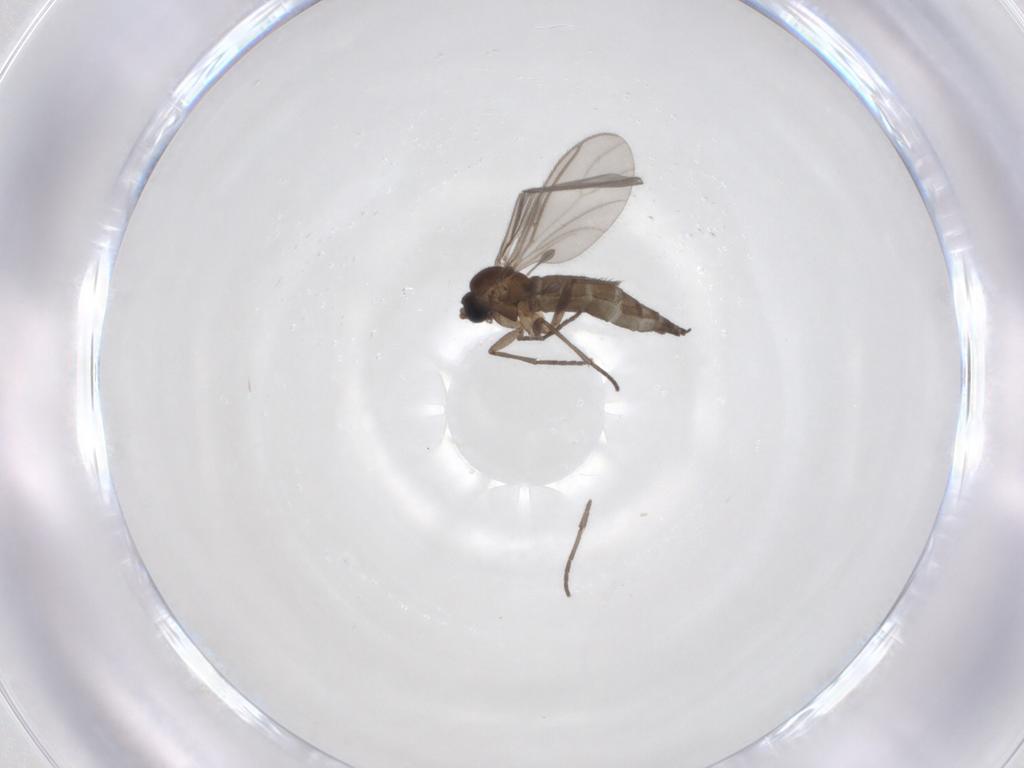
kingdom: Animalia
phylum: Arthropoda
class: Insecta
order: Diptera
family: Sciaridae
